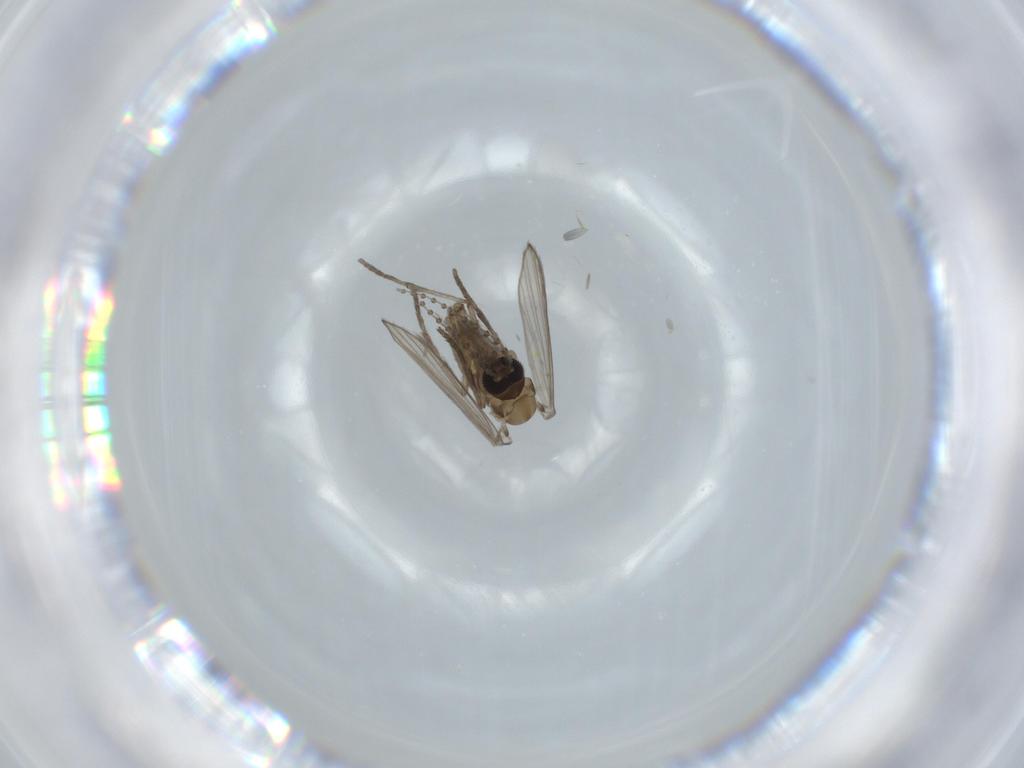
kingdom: Animalia
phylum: Arthropoda
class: Insecta
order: Diptera
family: Psychodidae
